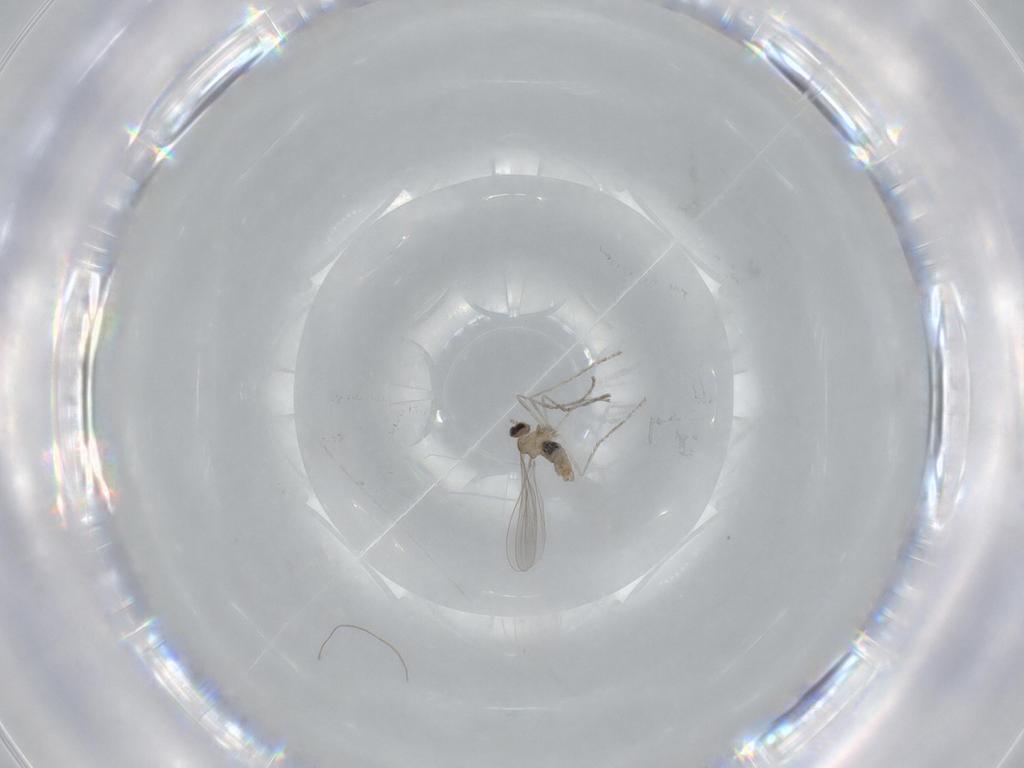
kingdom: Animalia
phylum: Arthropoda
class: Insecta
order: Diptera
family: Cecidomyiidae
